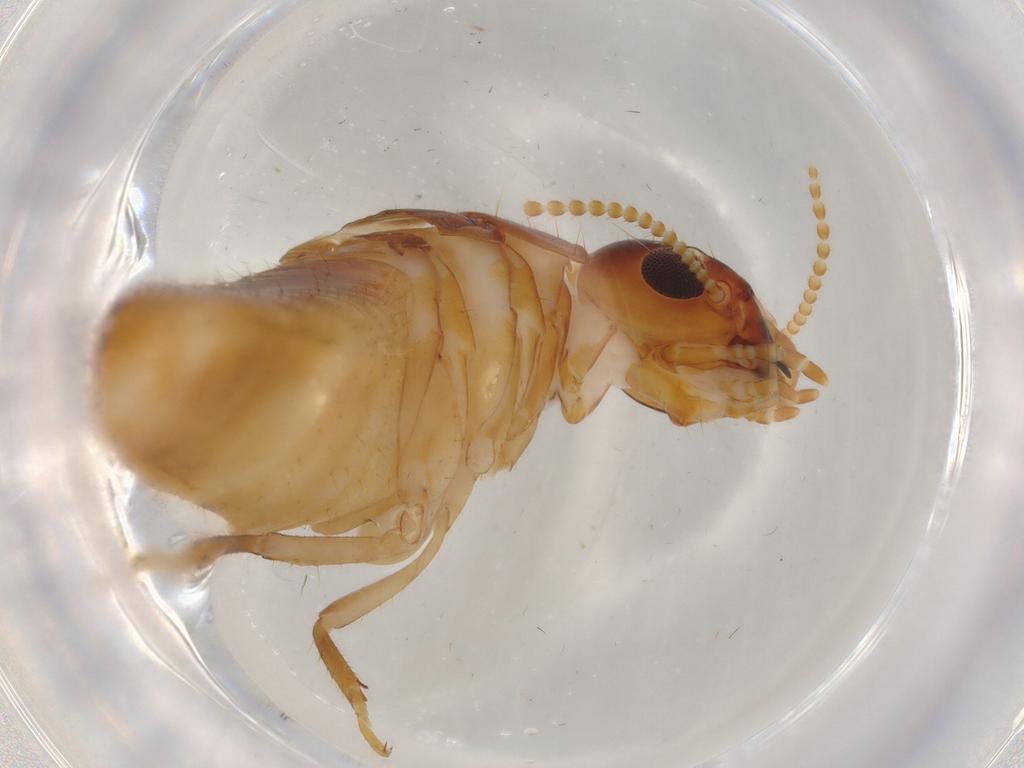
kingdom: Animalia
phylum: Arthropoda
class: Insecta
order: Blattodea
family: Kalotermitidae
